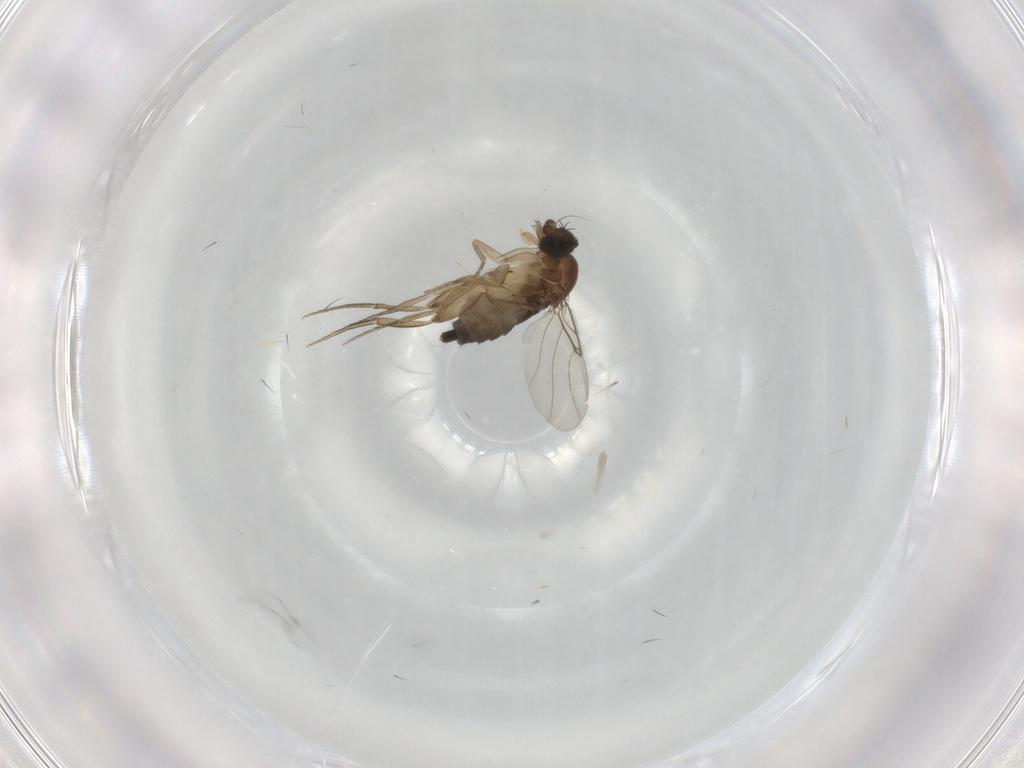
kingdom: Animalia
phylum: Arthropoda
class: Insecta
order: Diptera
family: Phoridae
